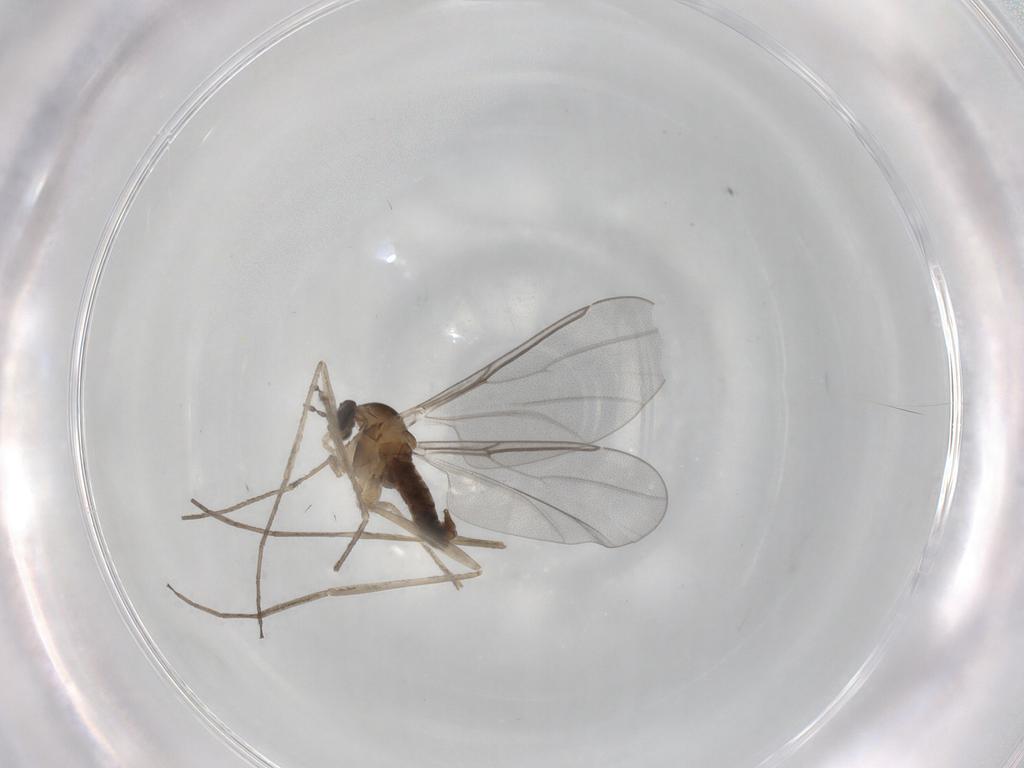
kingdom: Animalia
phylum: Arthropoda
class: Insecta
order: Diptera
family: Cecidomyiidae
